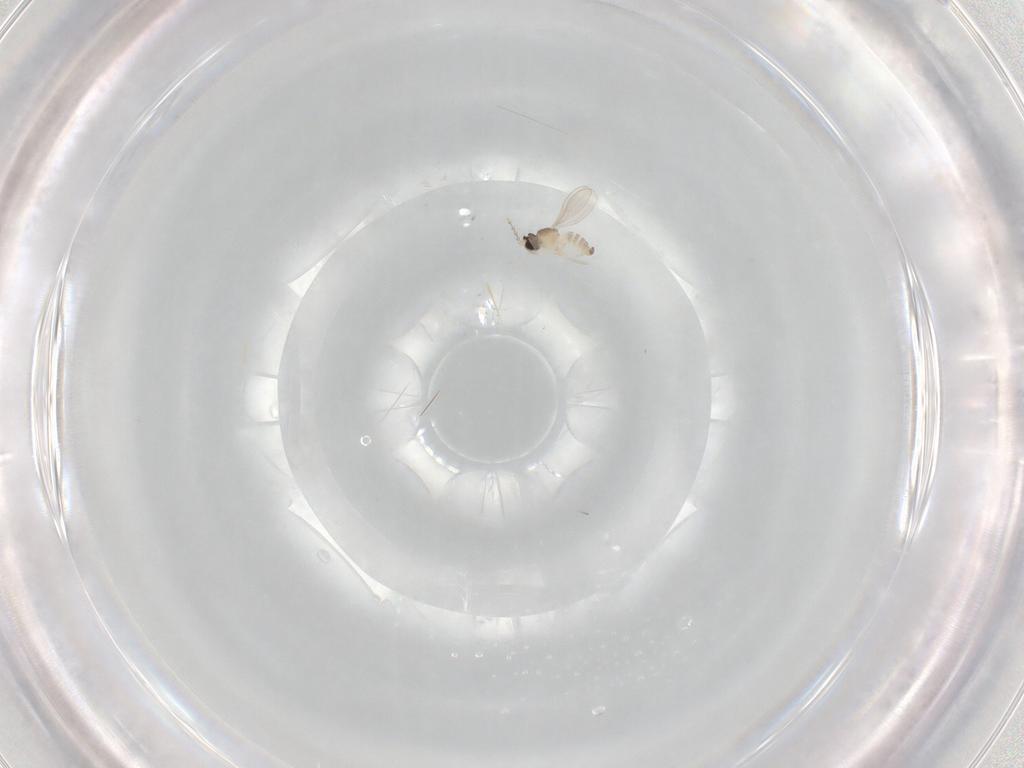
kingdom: Animalia
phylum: Arthropoda
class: Insecta
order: Diptera
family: Cecidomyiidae
